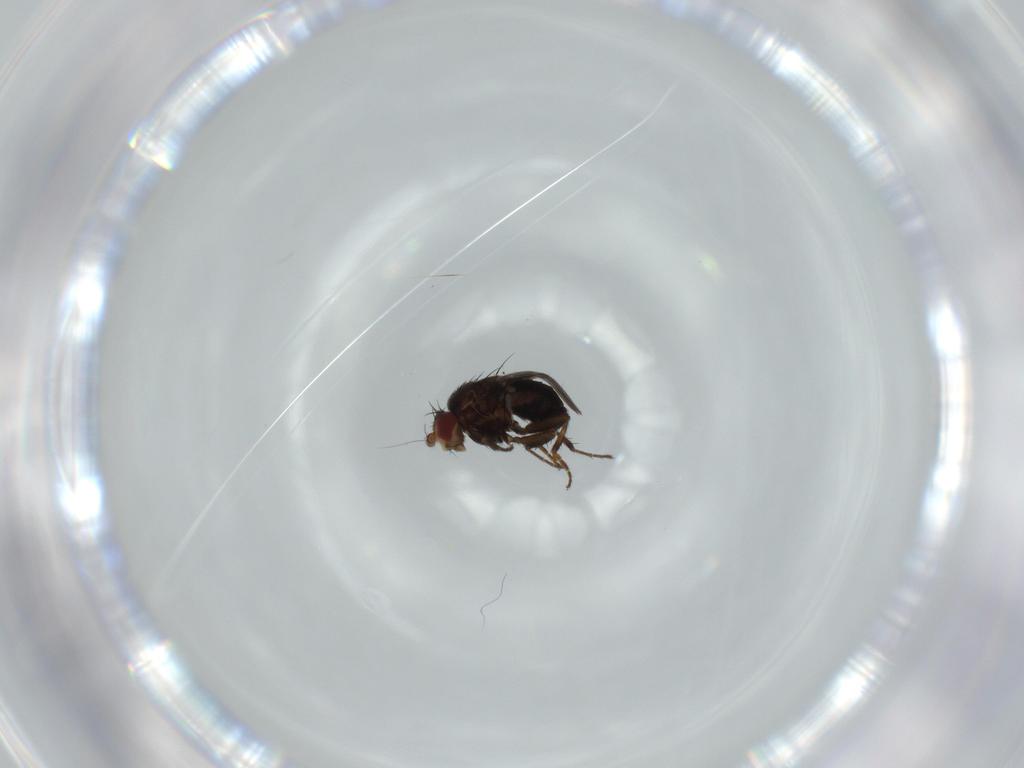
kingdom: Animalia
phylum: Arthropoda
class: Insecta
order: Diptera
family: Sphaeroceridae
